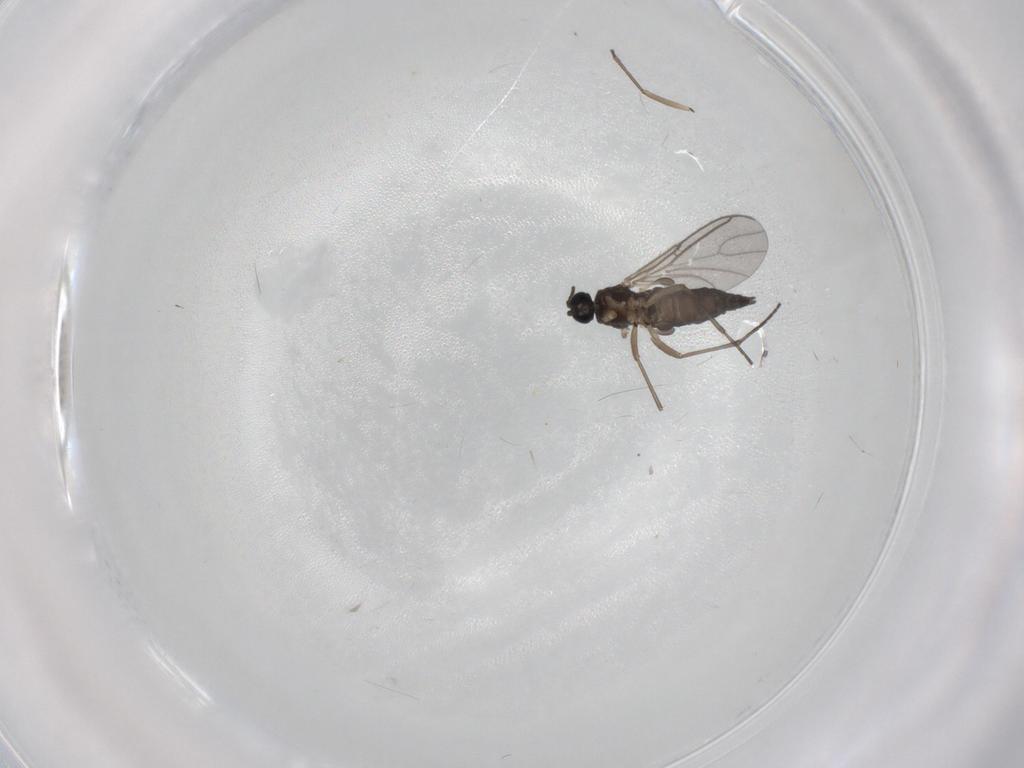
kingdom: Animalia
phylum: Arthropoda
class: Insecta
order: Diptera
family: Sciaridae
